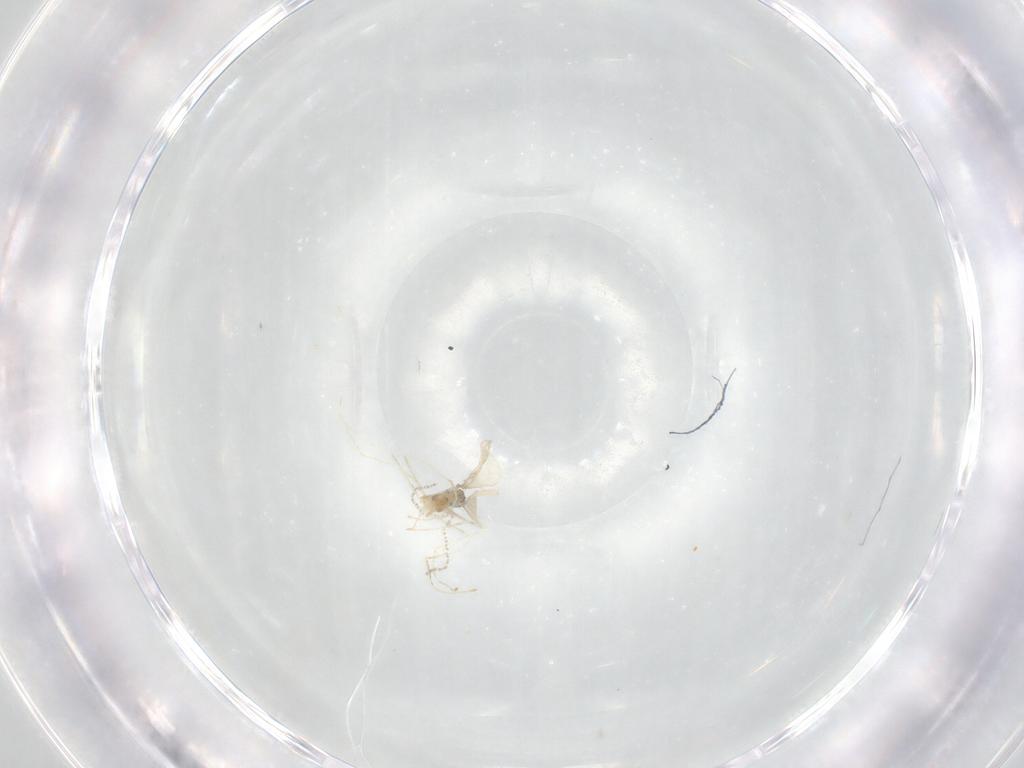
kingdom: Animalia
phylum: Arthropoda
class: Insecta
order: Diptera
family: Cecidomyiidae
